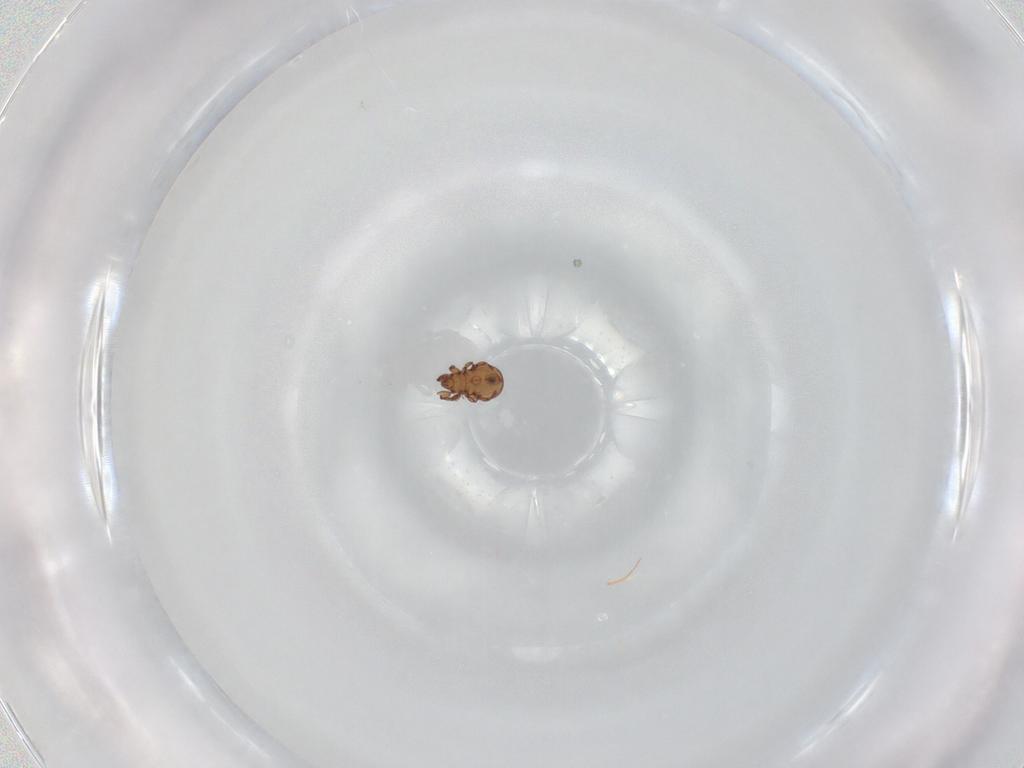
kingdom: Animalia
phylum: Arthropoda
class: Arachnida
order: Sarcoptiformes
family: Eremaeidae
